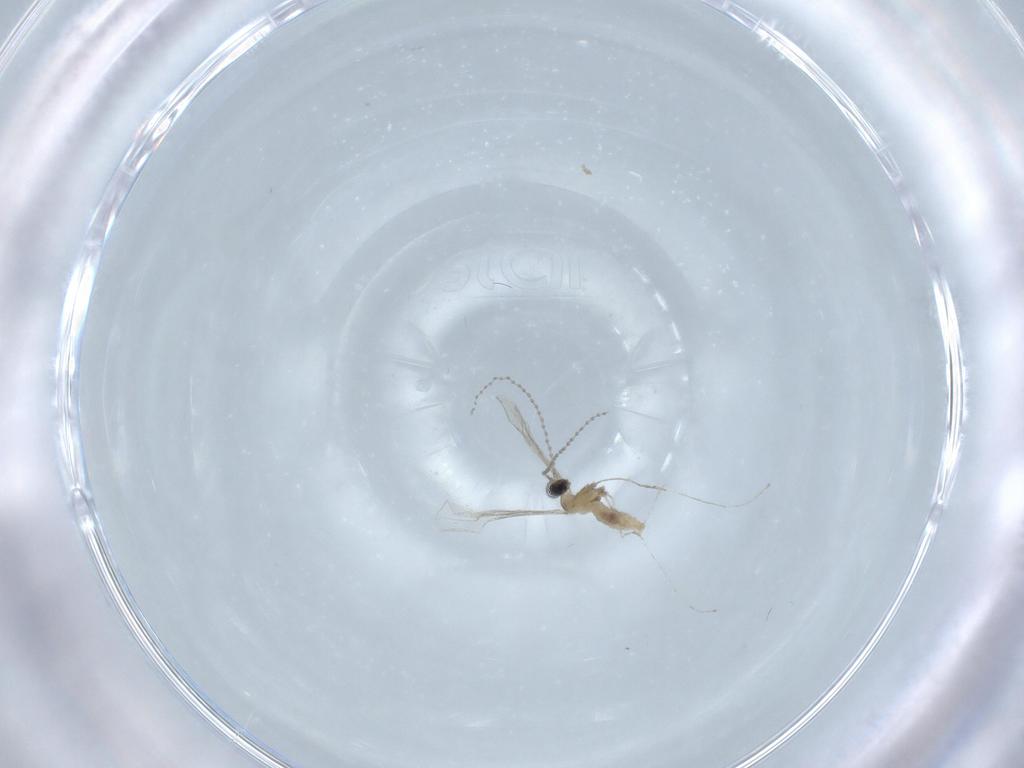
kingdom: Animalia
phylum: Arthropoda
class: Insecta
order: Diptera
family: Cecidomyiidae
